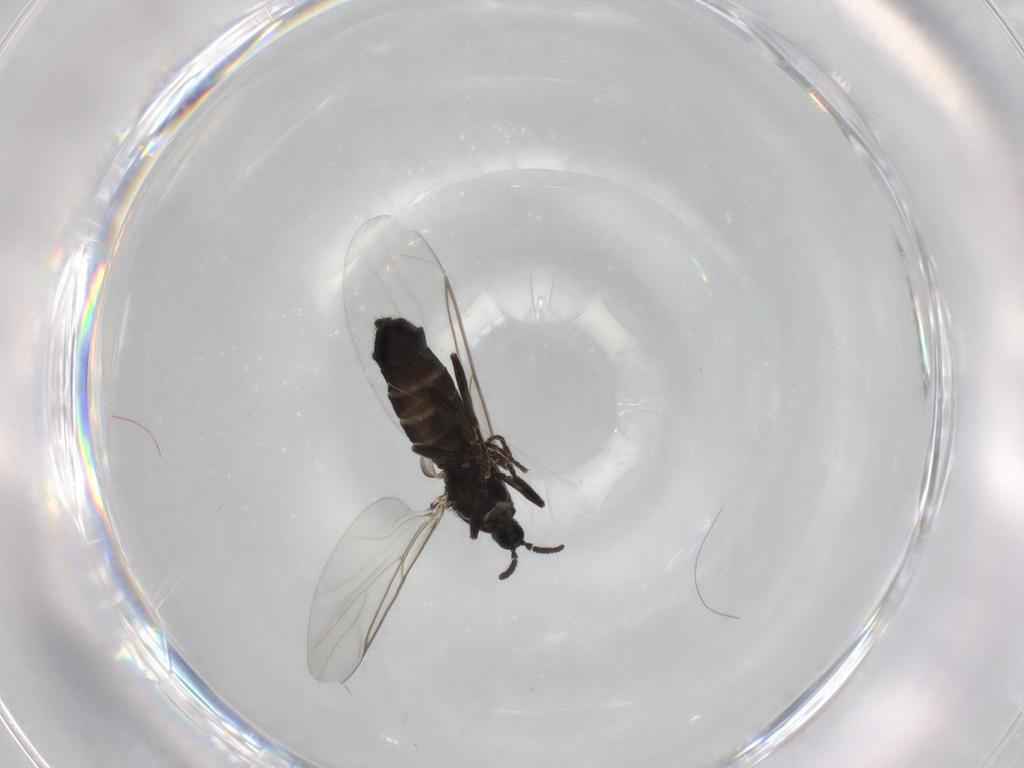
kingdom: Animalia
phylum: Arthropoda
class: Insecta
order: Diptera
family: Scatopsidae
